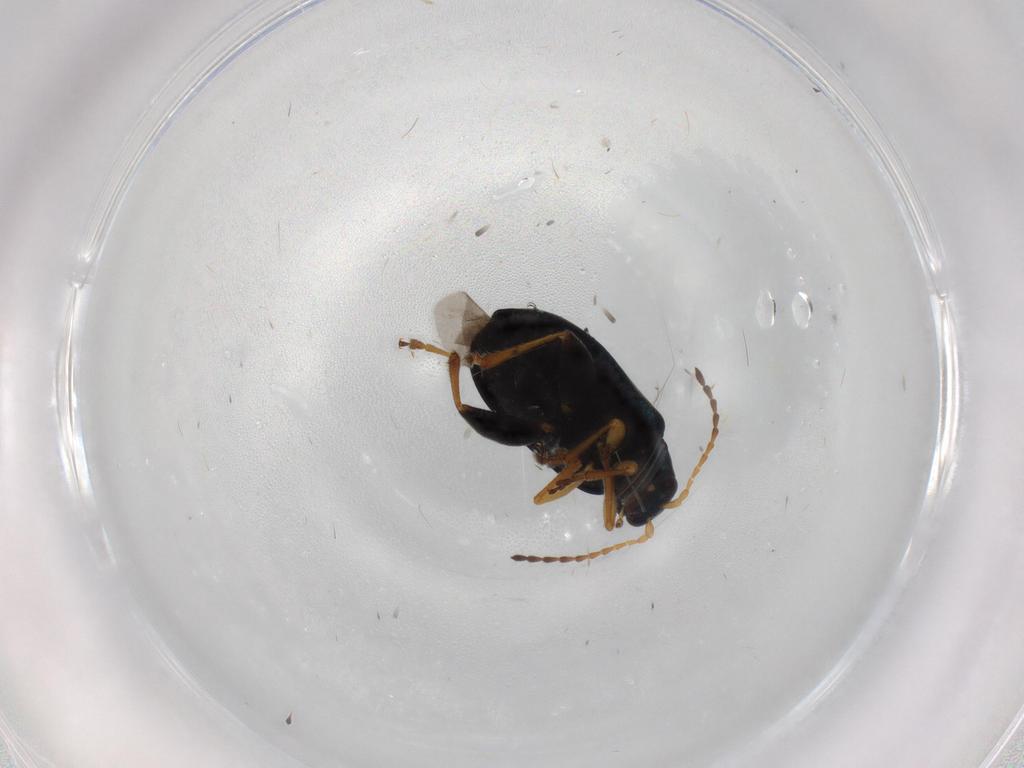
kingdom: Animalia
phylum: Arthropoda
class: Insecta
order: Coleoptera
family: Chrysomelidae
